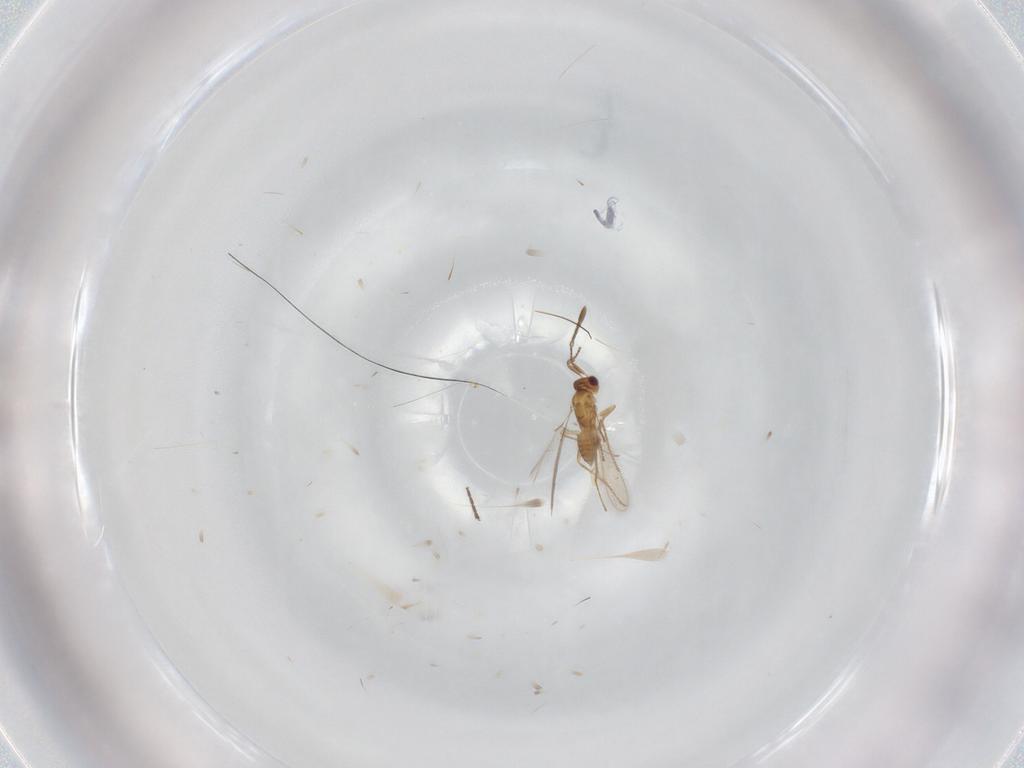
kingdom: Animalia
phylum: Arthropoda
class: Insecta
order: Hymenoptera
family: Mymaridae
